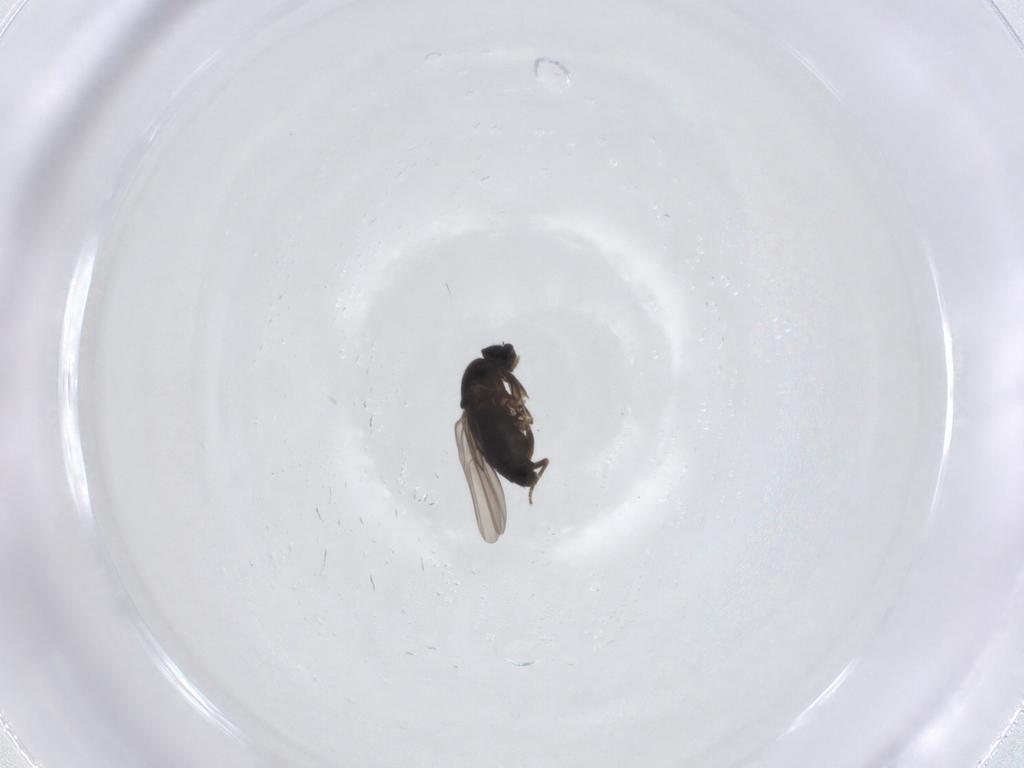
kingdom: Animalia
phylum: Arthropoda
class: Insecta
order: Diptera
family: Phoridae
